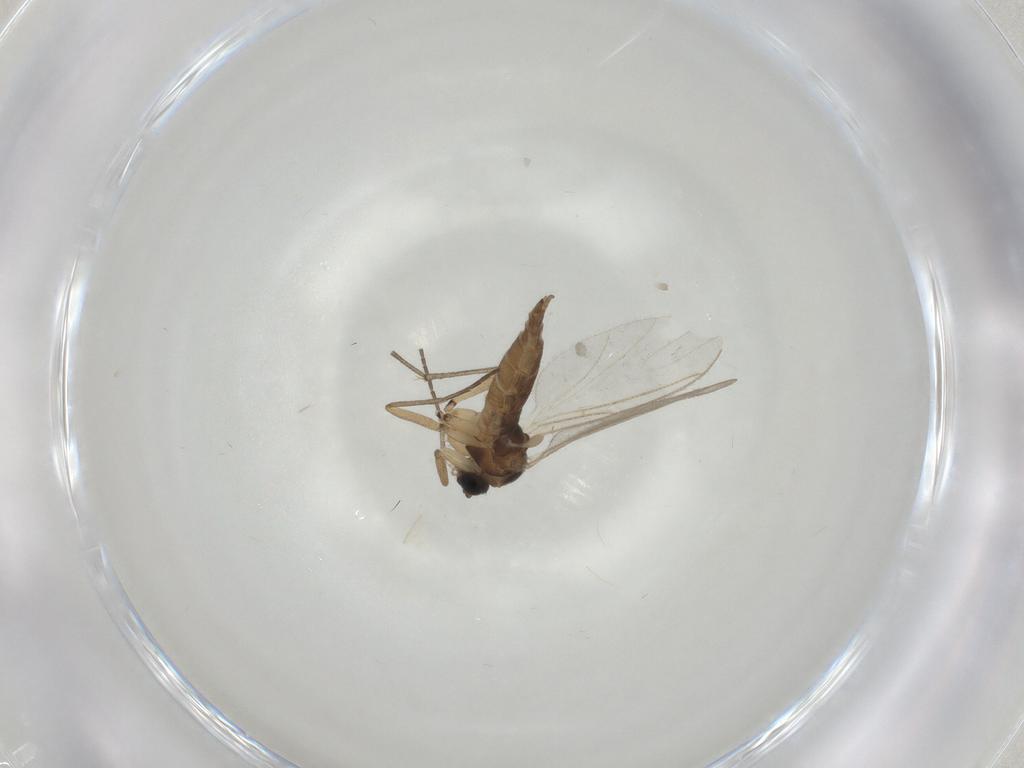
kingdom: Animalia
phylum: Arthropoda
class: Insecta
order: Diptera
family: Sciaridae
